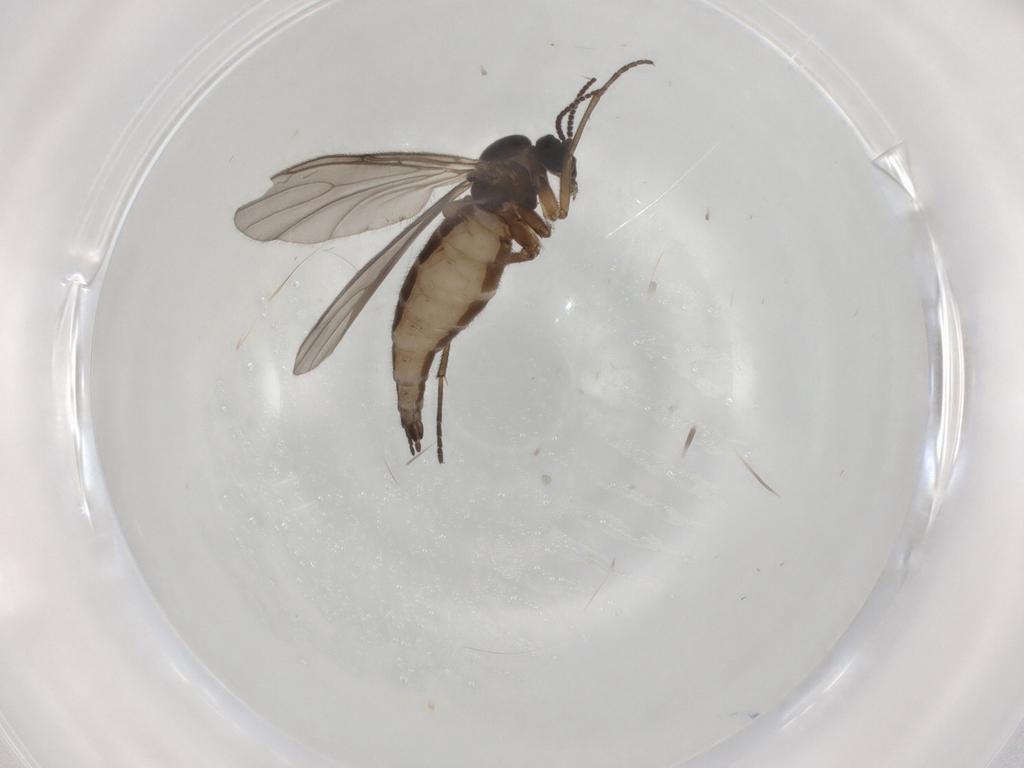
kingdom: Animalia
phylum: Arthropoda
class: Insecta
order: Diptera
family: Sciaridae
